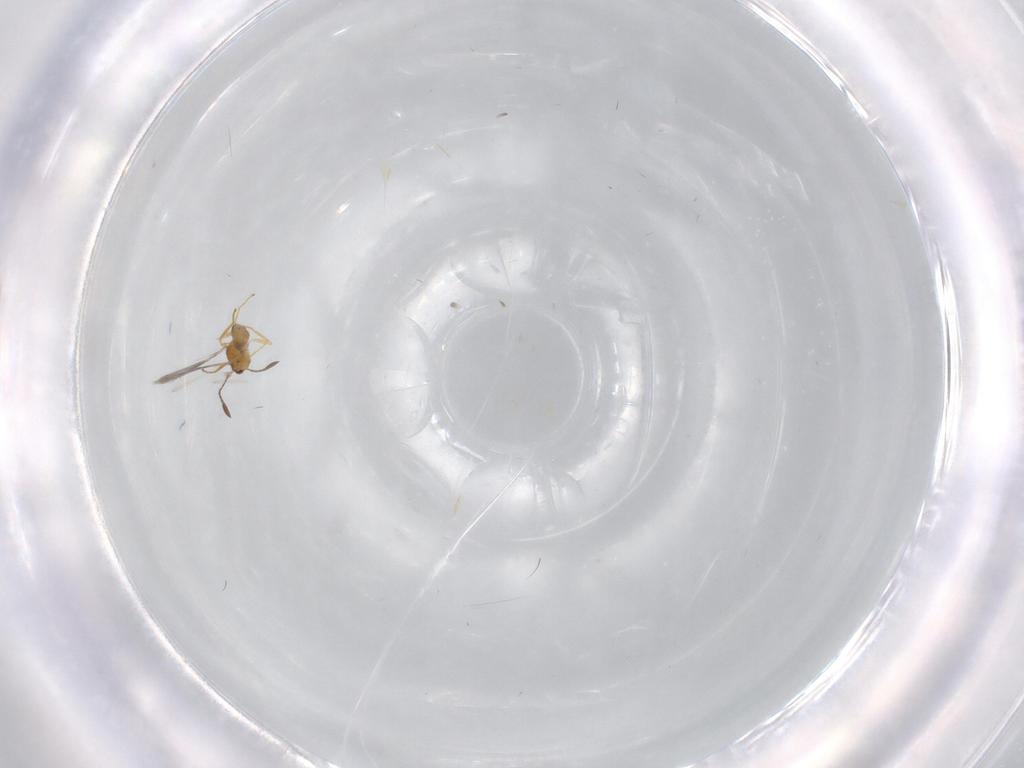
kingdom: Animalia
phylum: Arthropoda
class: Insecta
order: Hymenoptera
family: Mymaridae
